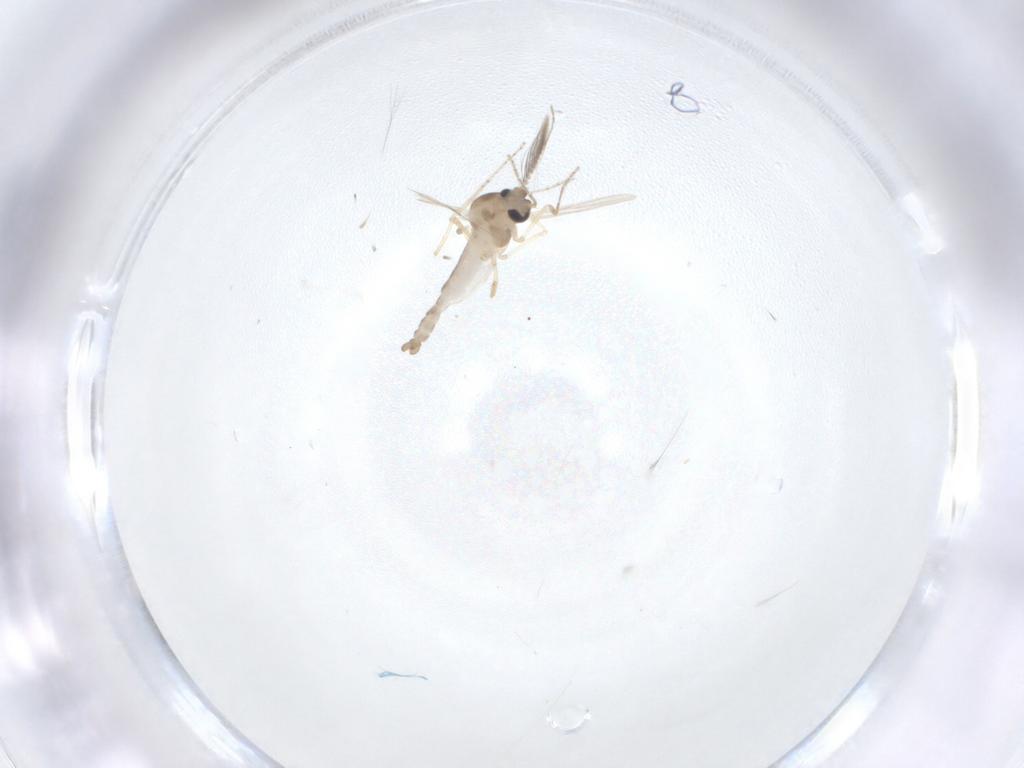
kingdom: Animalia
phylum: Arthropoda
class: Insecta
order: Diptera
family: Ceratopogonidae
